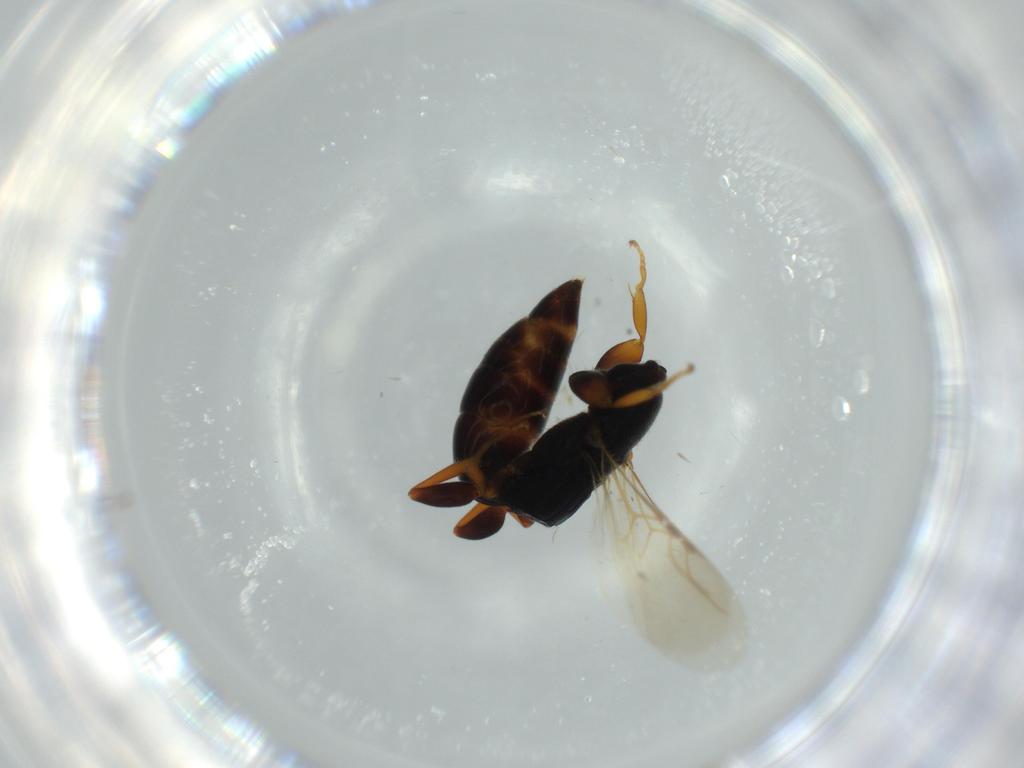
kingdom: Animalia
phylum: Arthropoda
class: Insecta
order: Hymenoptera
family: Bethylidae
